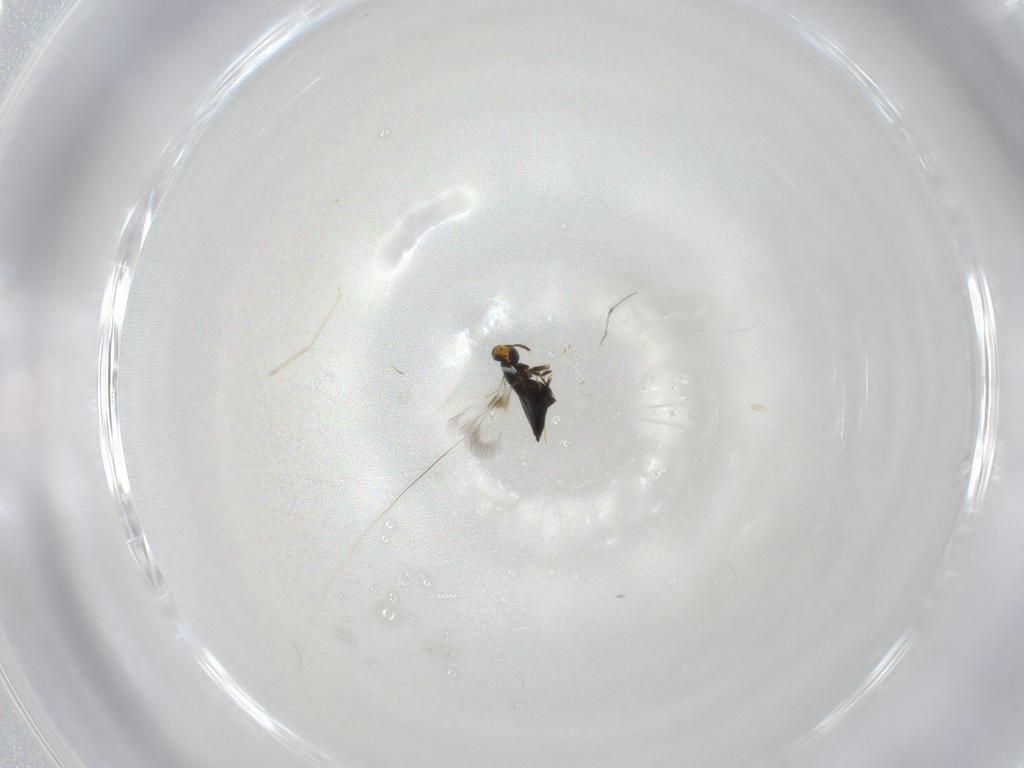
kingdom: Animalia
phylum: Arthropoda
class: Insecta
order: Hymenoptera
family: Signiphoridae
